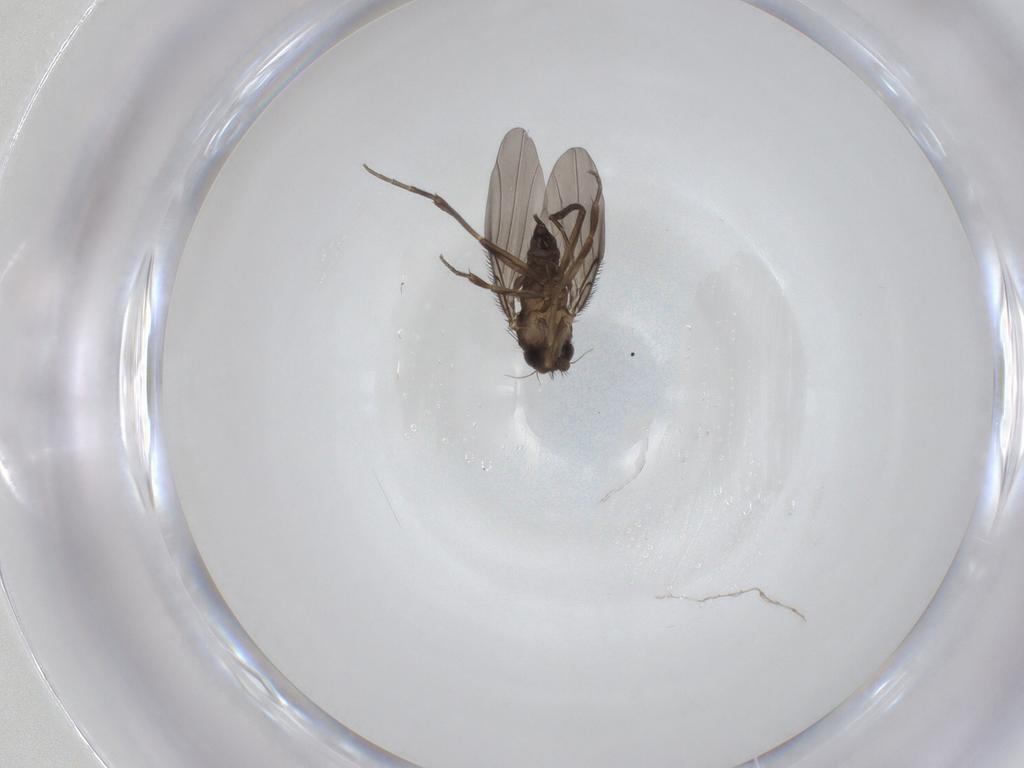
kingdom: Animalia
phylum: Arthropoda
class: Insecta
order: Diptera
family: Phoridae
